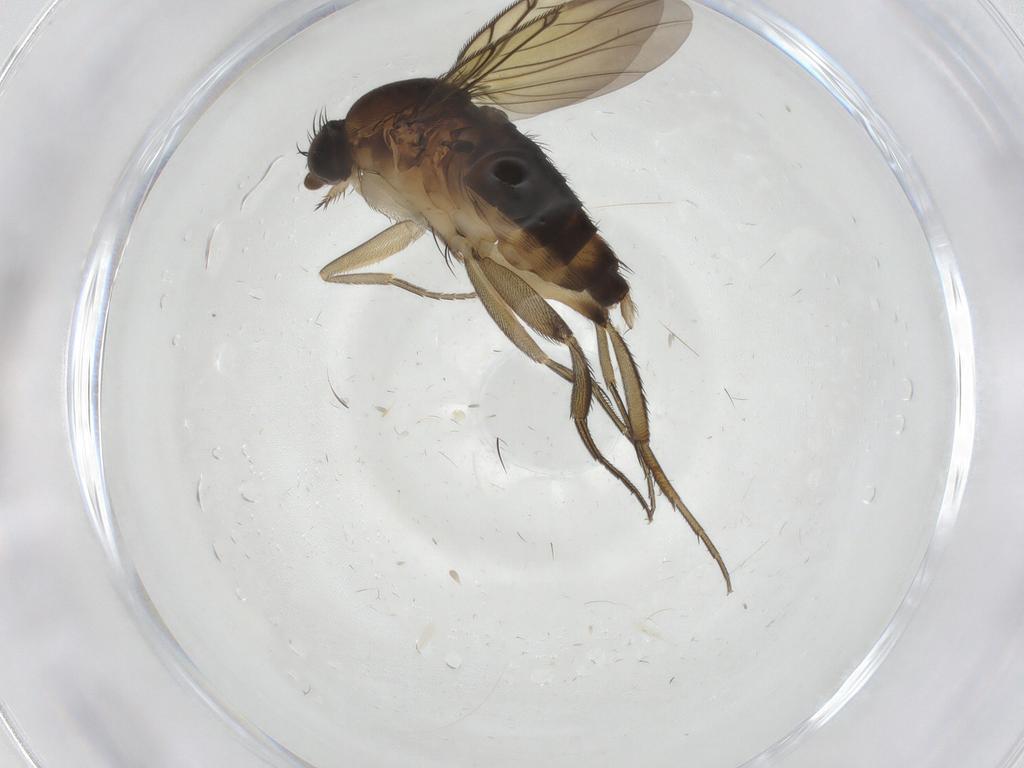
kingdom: Animalia
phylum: Arthropoda
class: Insecta
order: Diptera
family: Phoridae
